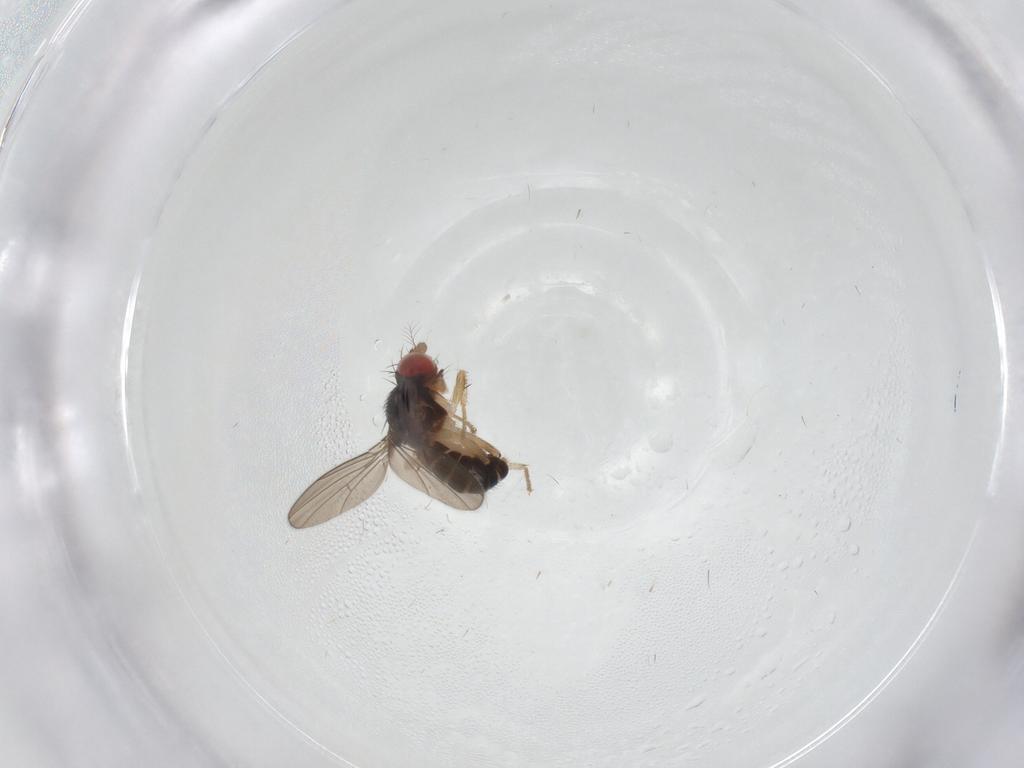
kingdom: Animalia
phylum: Arthropoda
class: Insecta
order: Diptera
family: Drosophilidae
